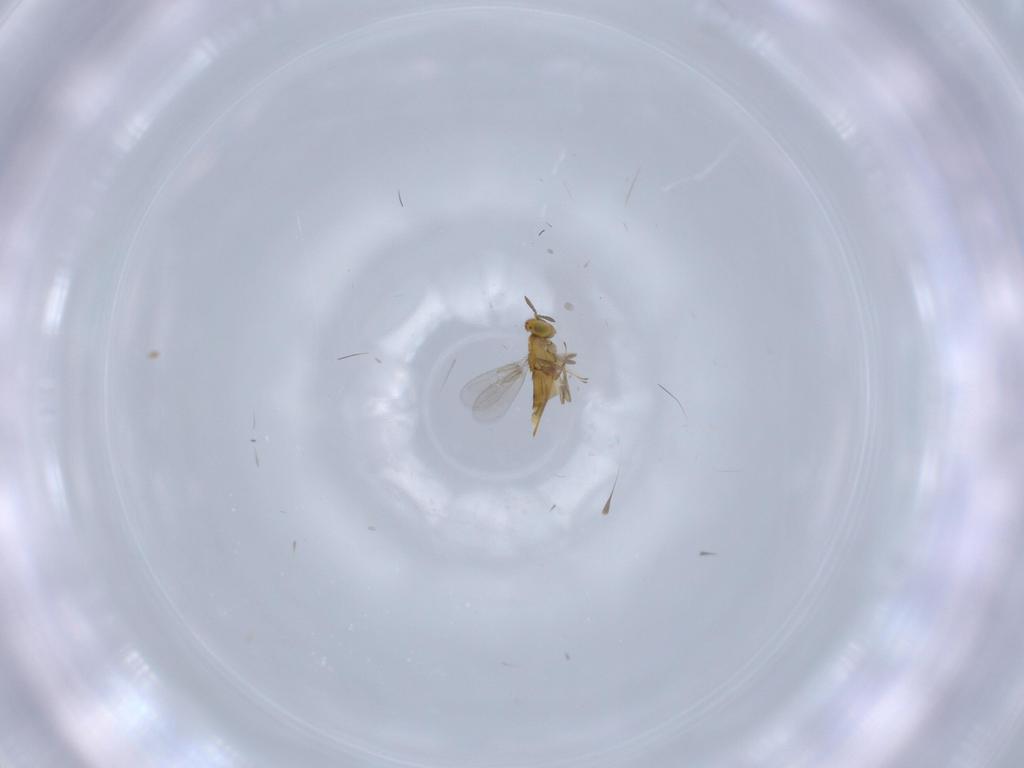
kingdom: Animalia
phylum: Arthropoda
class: Insecta
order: Hymenoptera
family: Aphelinidae
